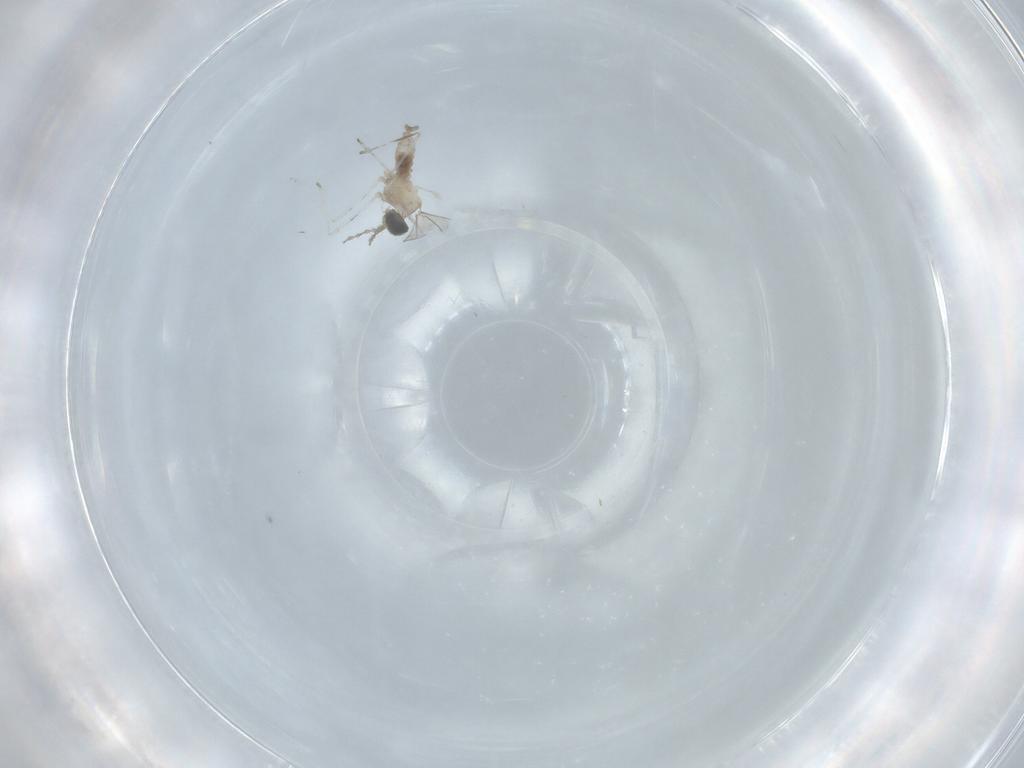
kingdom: Animalia
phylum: Arthropoda
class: Insecta
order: Diptera
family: Cecidomyiidae
